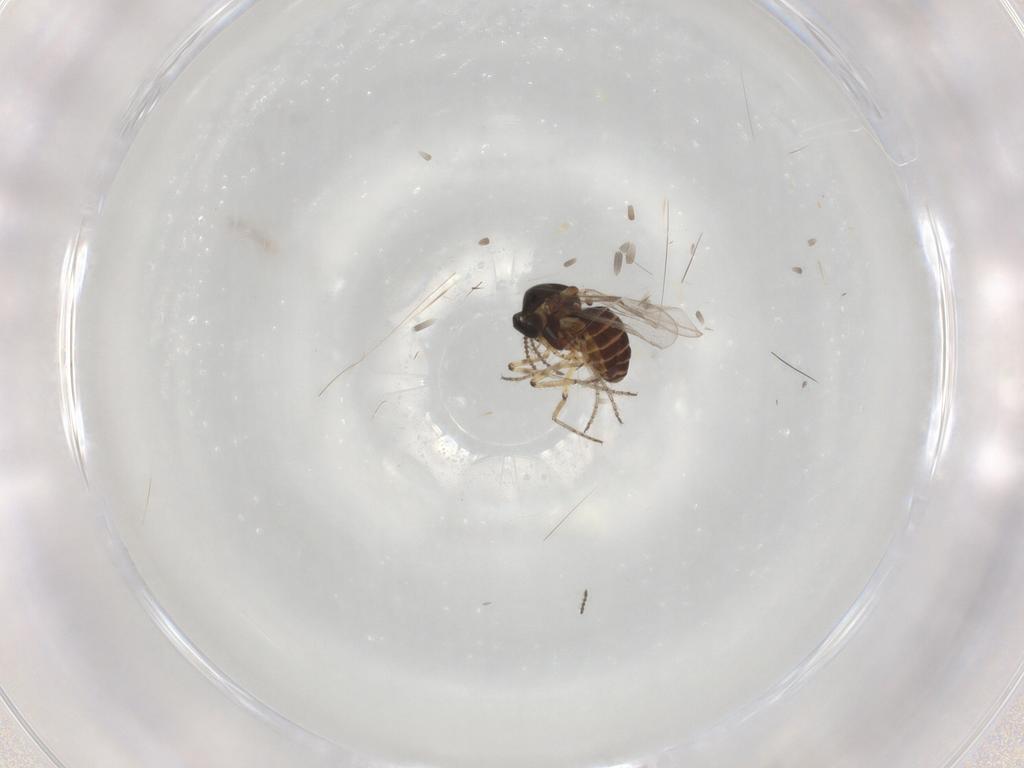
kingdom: Animalia
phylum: Arthropoda
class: Insecta
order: Diptera
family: Ceratopogonidae
